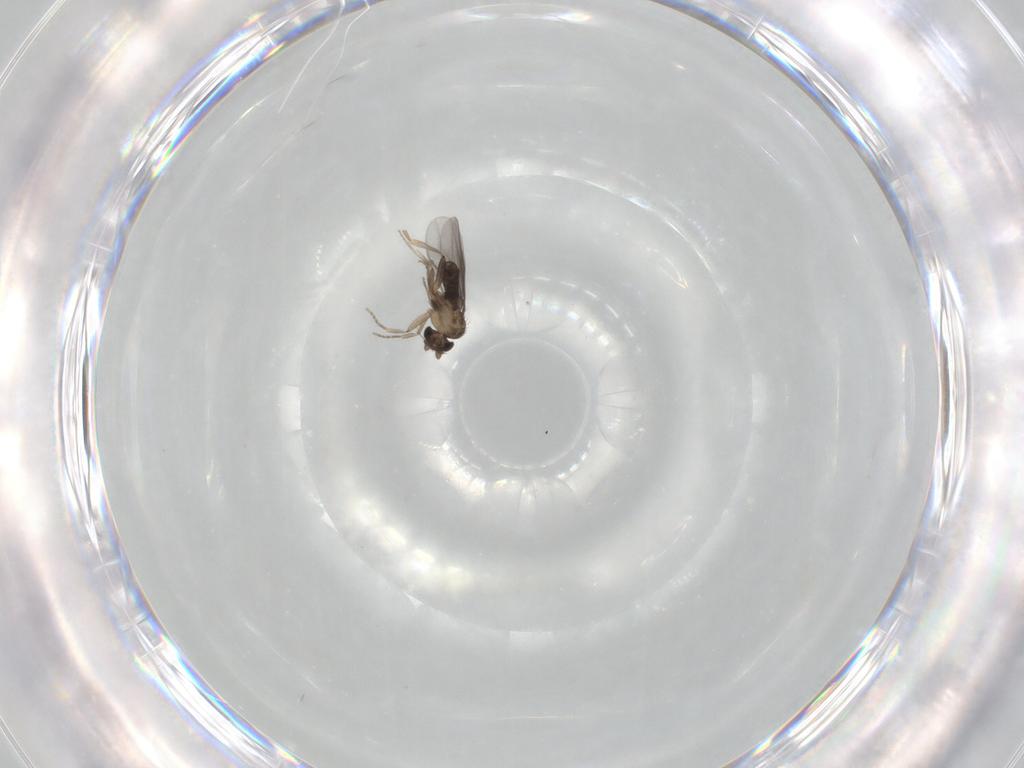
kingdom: Animalia
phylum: Arthropoda
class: Insecta
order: Diptera
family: Phoridae
